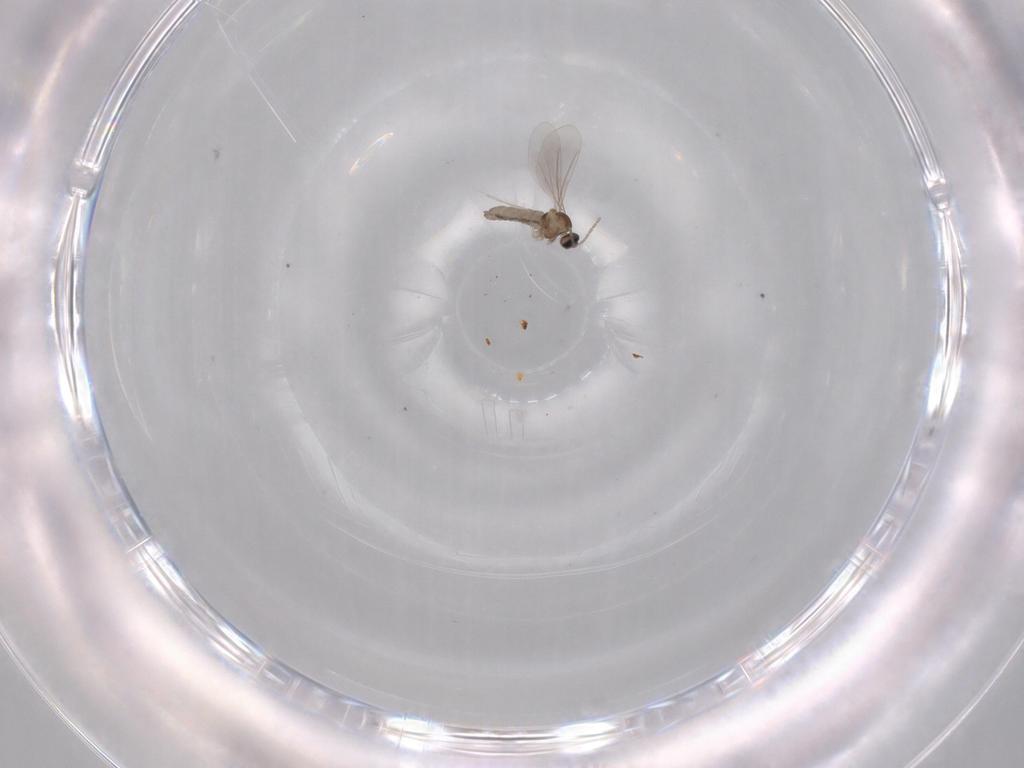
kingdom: Animalia
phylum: Arthropoda
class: Insecta
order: Diptera
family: Cecidomyiidae
